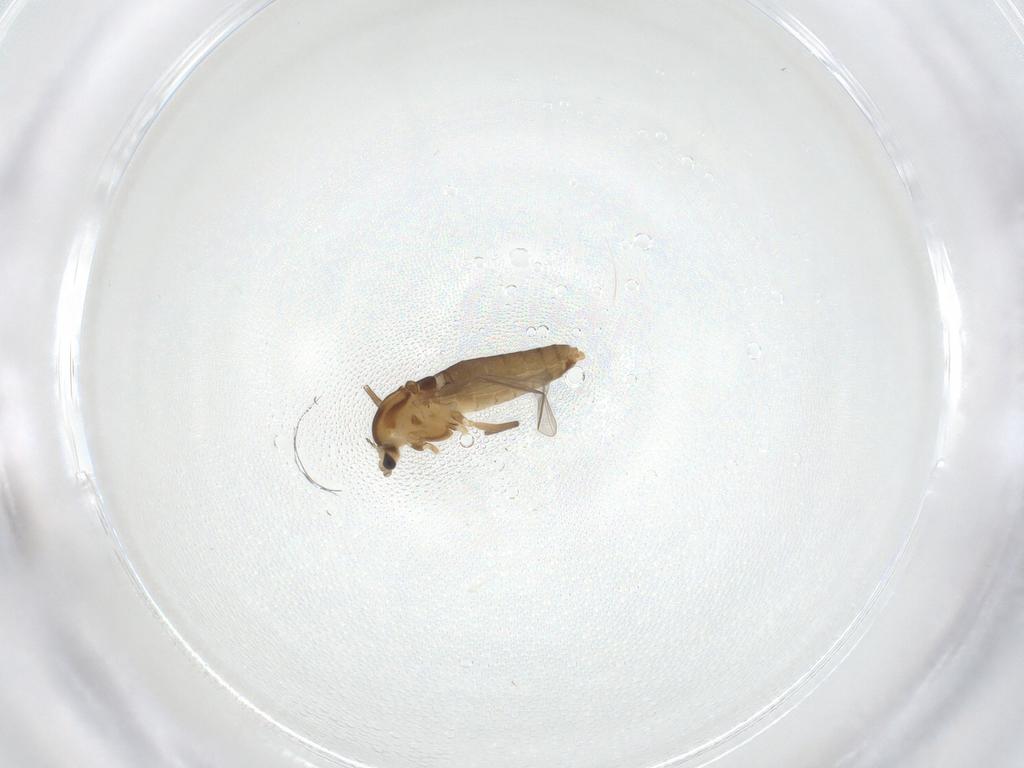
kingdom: Animalia
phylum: Arthropoda
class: Insecta
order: Diptera
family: Chironomidae
